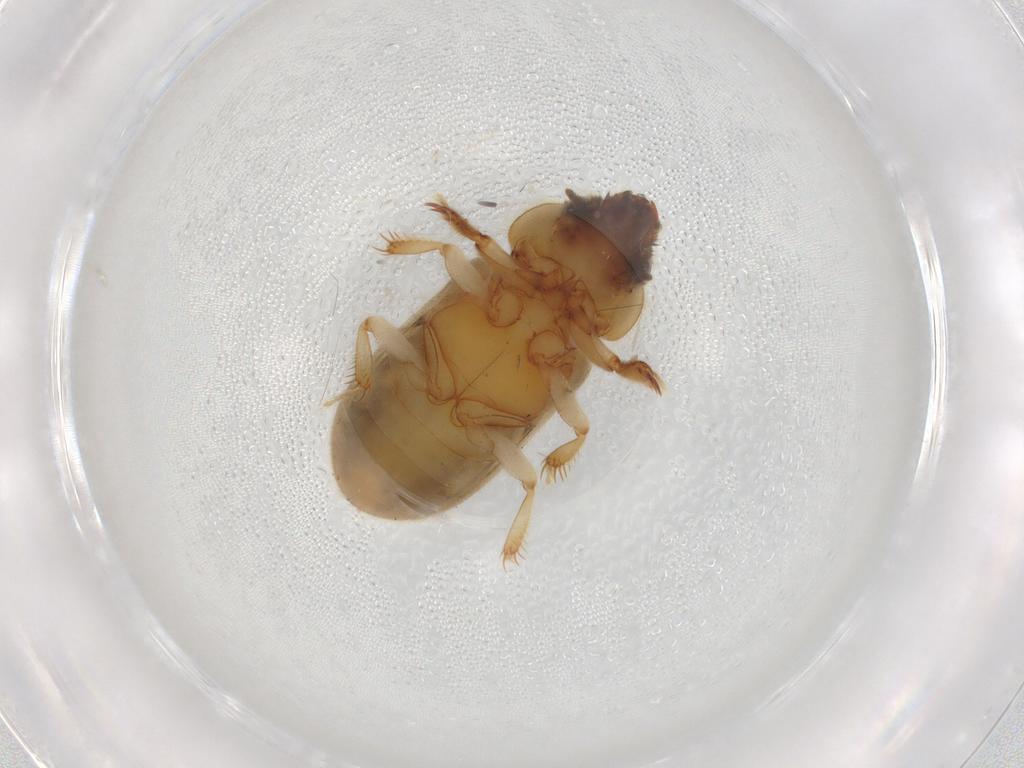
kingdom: Animalia
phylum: Arthropoda
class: Insecta
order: Coleoptera
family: Heteroceridae
